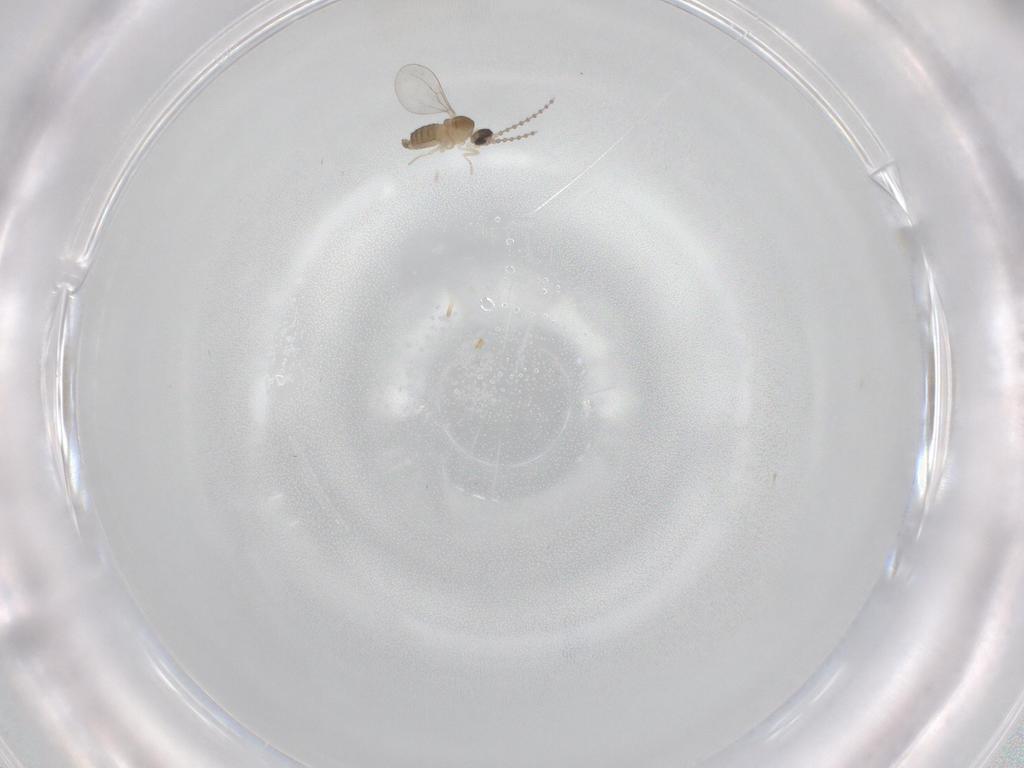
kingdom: Animalia
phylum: Arthropoda
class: Insecta
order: Diptera
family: Cecidomyiidae
